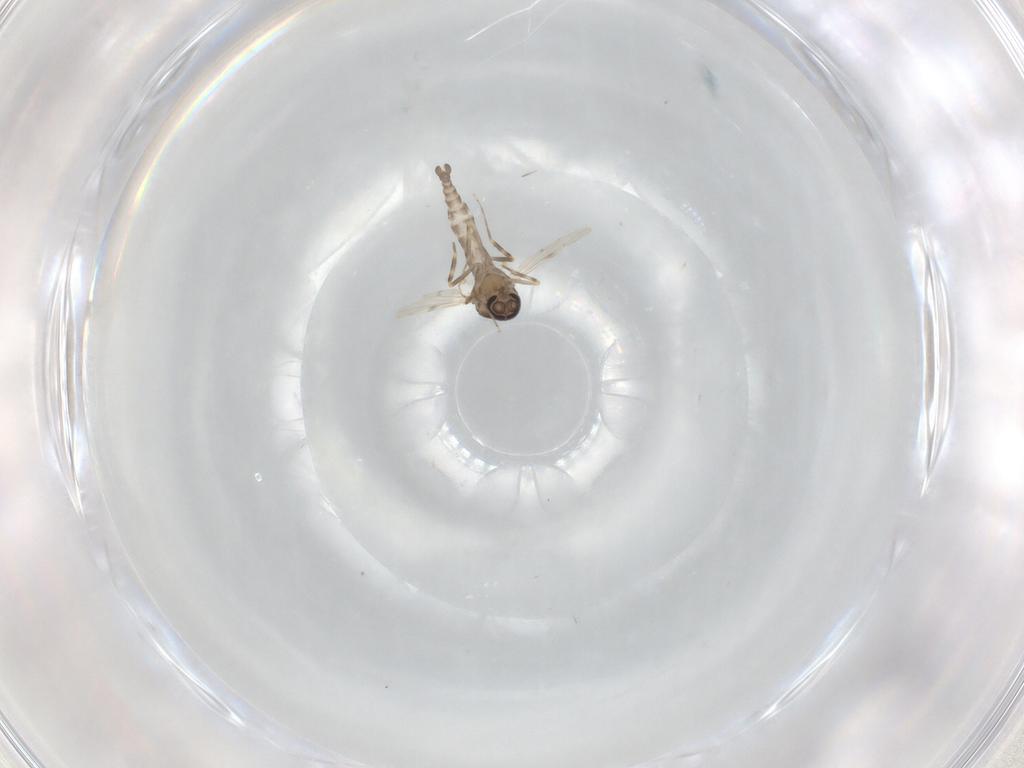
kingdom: Animalia
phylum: Arthropoda
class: Insecta
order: Diptera
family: Ceratopogonidae
